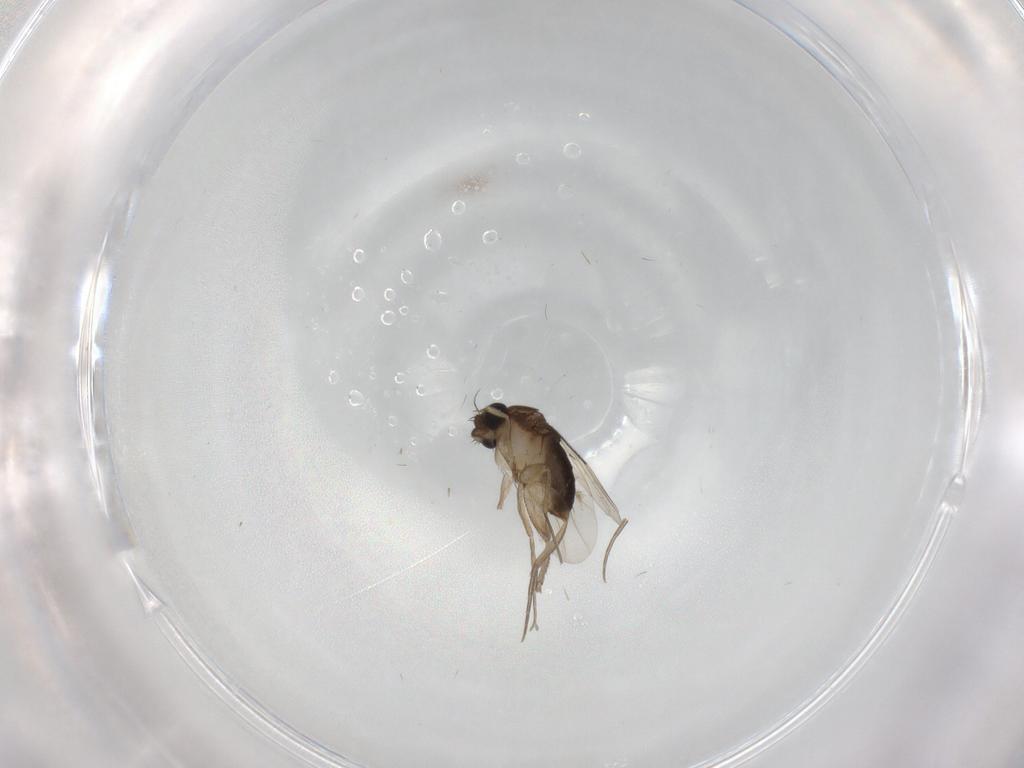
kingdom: Animalia
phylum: Arthropoda
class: Insecta
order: Diptera
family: Phoridae
